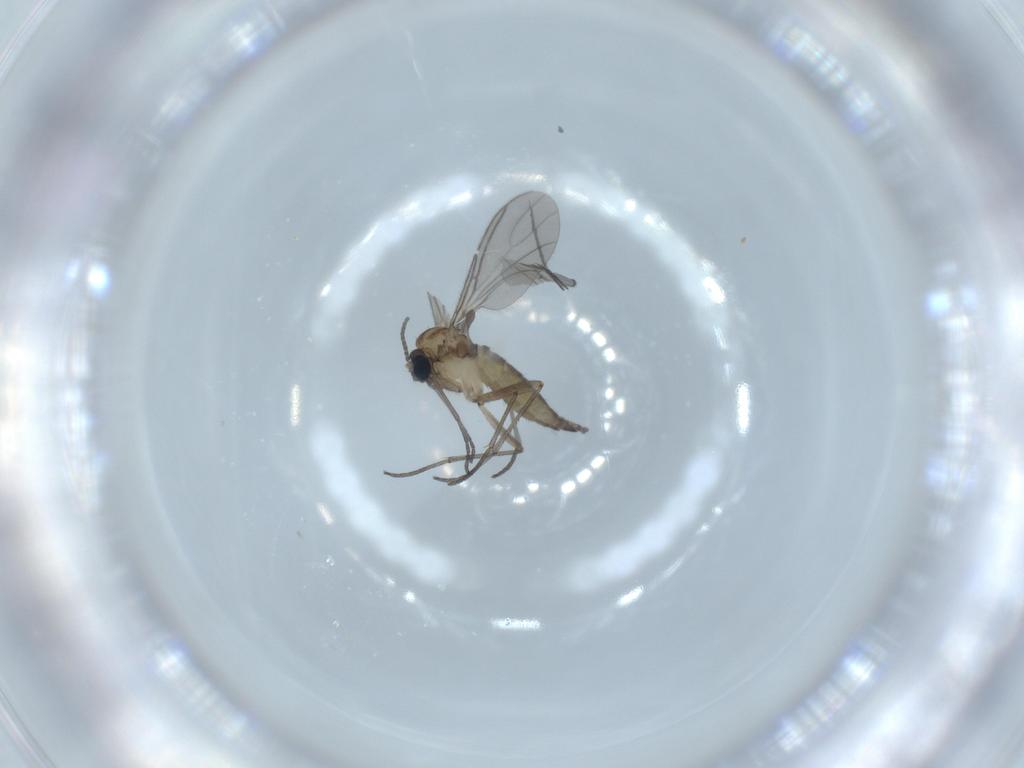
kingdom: Animalia
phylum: Arthropoda
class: Insecta
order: Diptera
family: Sciaridae
